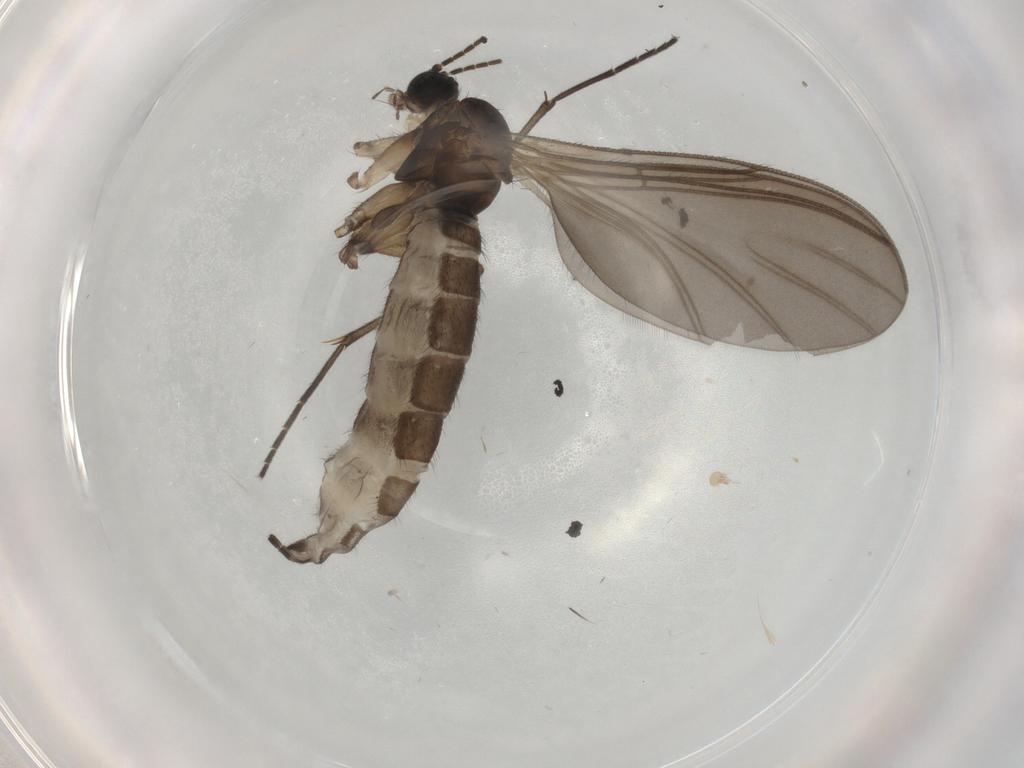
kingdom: Animalia
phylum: Arthropoda
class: Insecta
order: Diptera
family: Sciaridae
